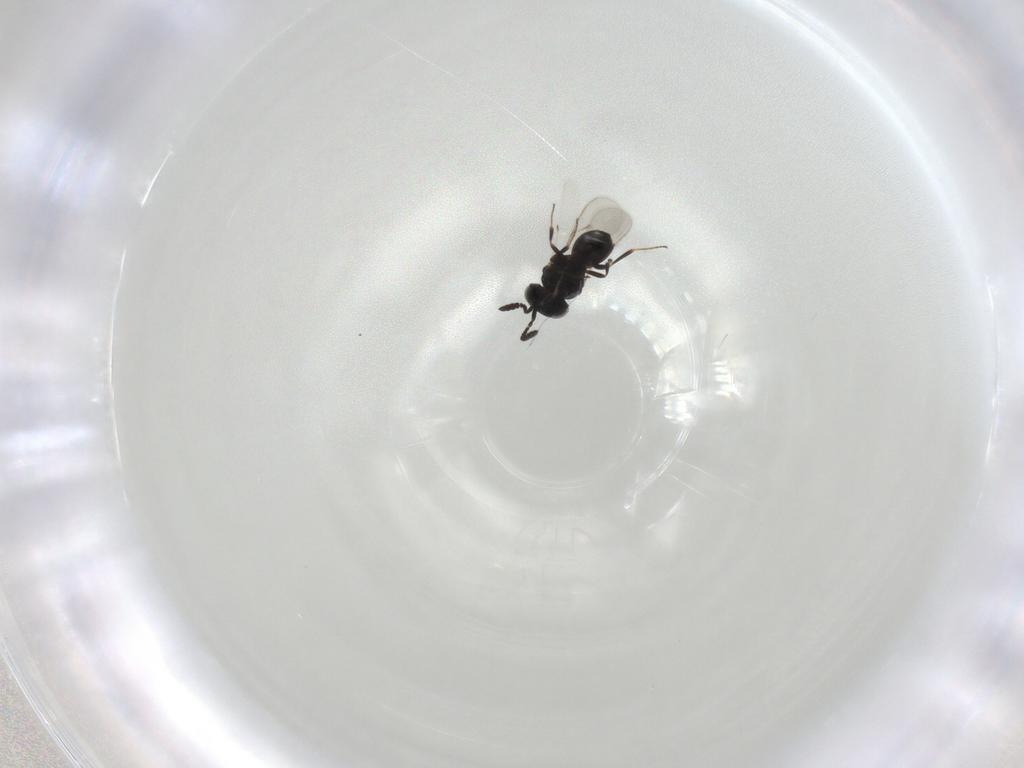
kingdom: Animalia
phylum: Arthropoda
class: Insecta
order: Hymenoptera
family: Scelionidae
